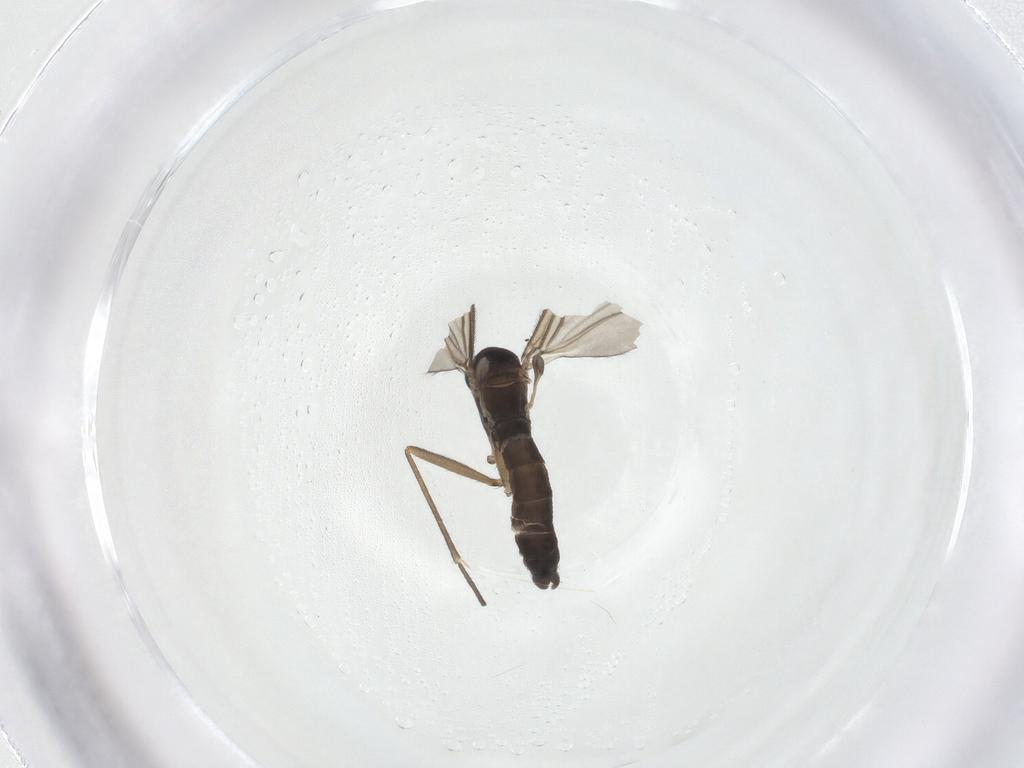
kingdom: Animalia
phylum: Arthropoda
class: Insecta
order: Diptera
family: Sciaridae
